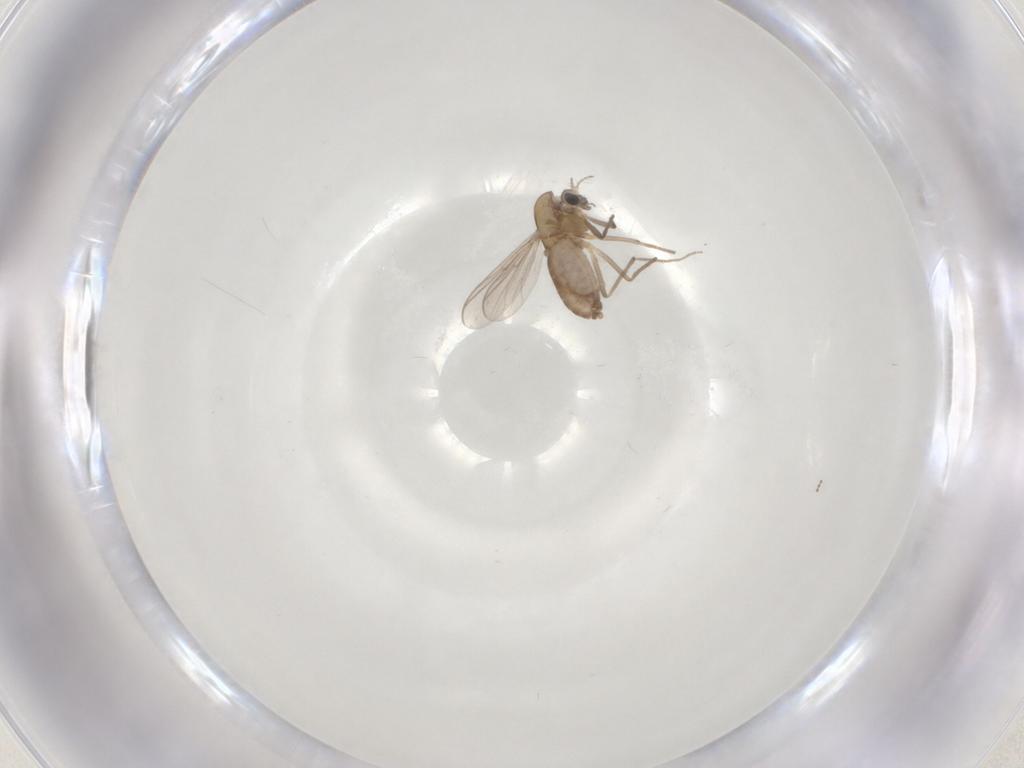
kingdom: Animalia
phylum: Arthropoda
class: Insecta
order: Diptera
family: Chironomidae
